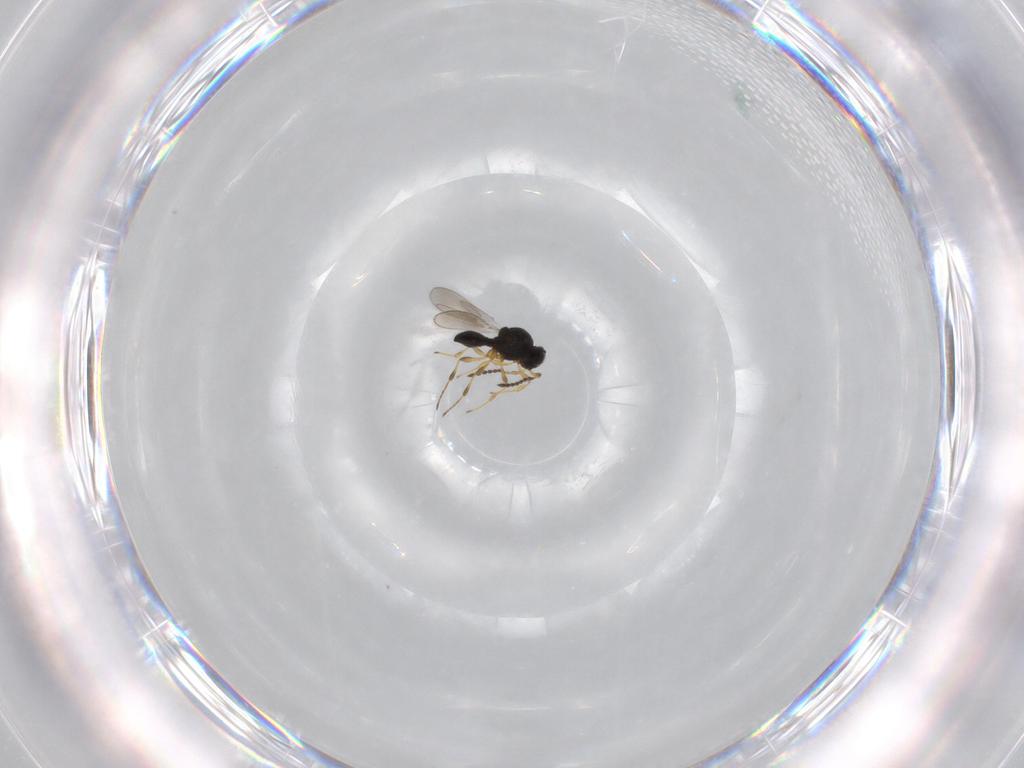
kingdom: Animalia
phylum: Arthropoda
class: Insecta
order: Hymenoptera
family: Platygastridae
